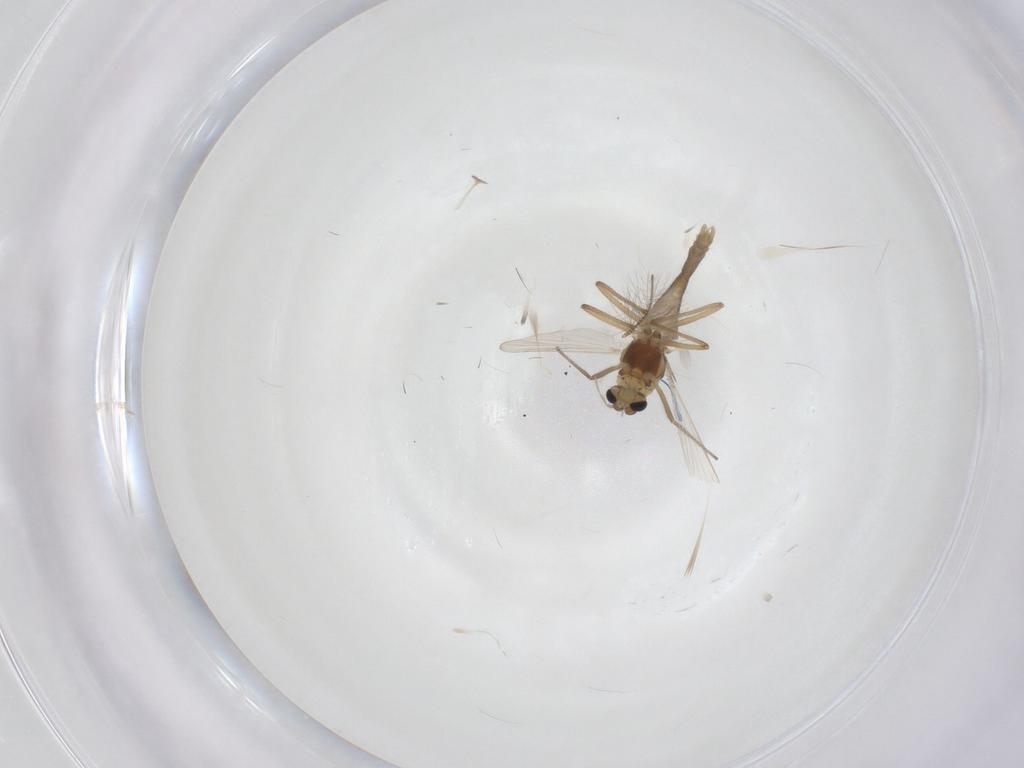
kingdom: Animalia
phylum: Arthropoda
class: Insecta
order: Diptera
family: Chironomidae
